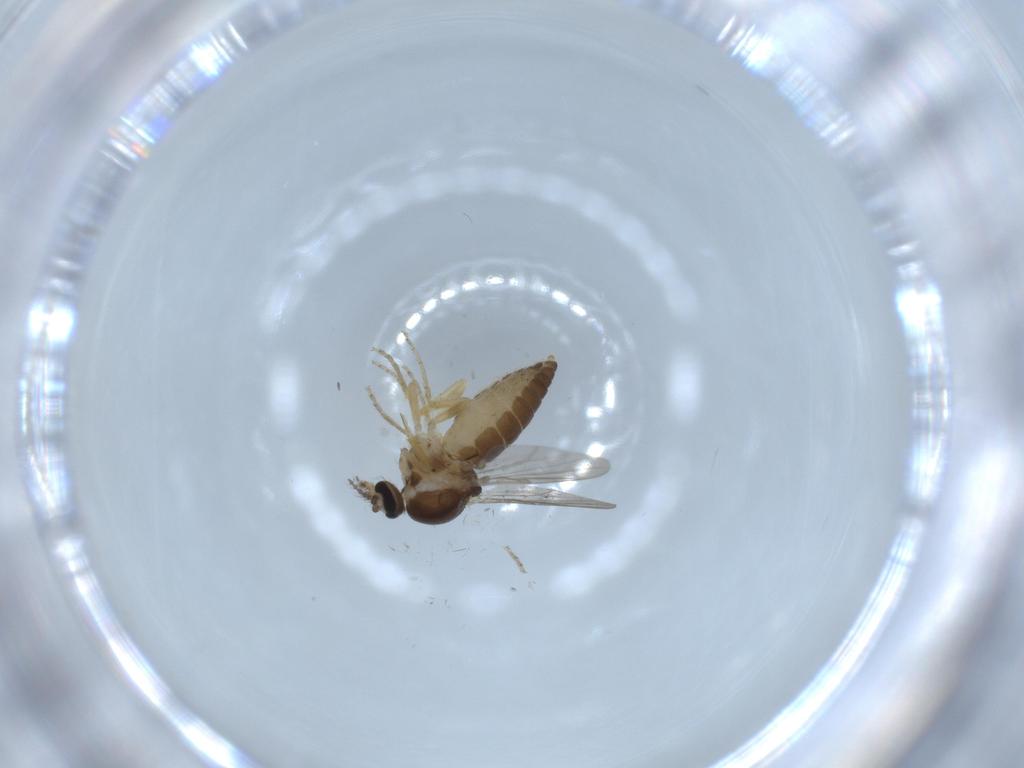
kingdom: Animalia
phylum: Arthropoda
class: Insecta
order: Diptera
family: Ceratopogonidae
